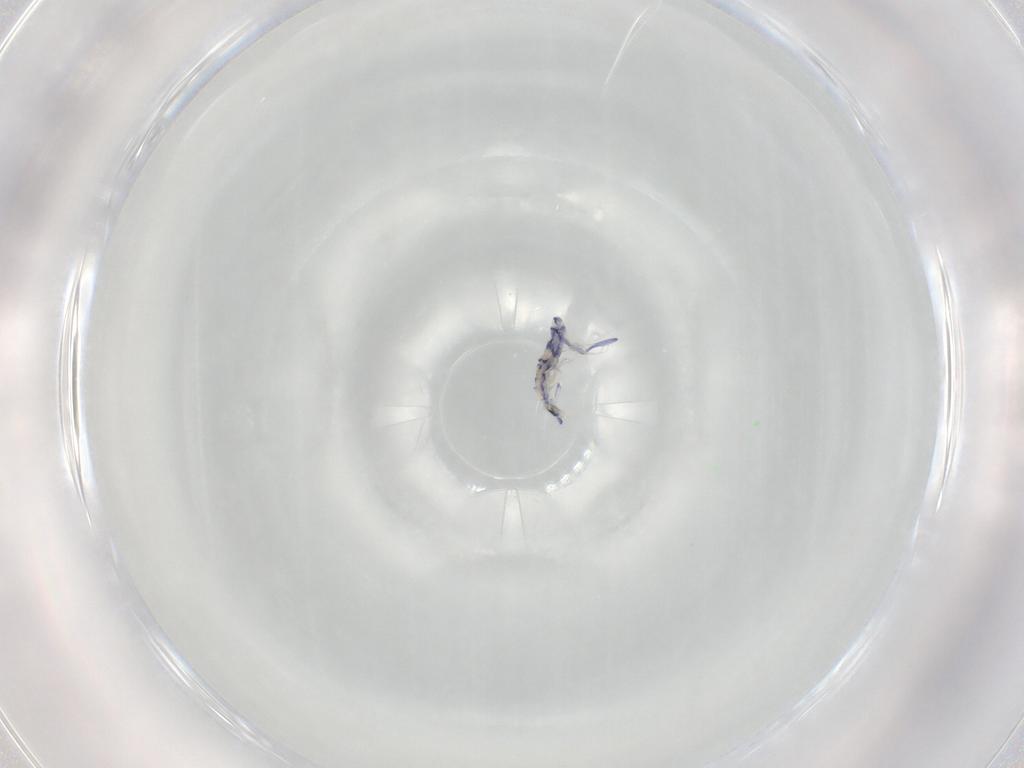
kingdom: Animalia
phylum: Arthropoda
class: Collembola
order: Entomobryomorpha
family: Entomobryidae
